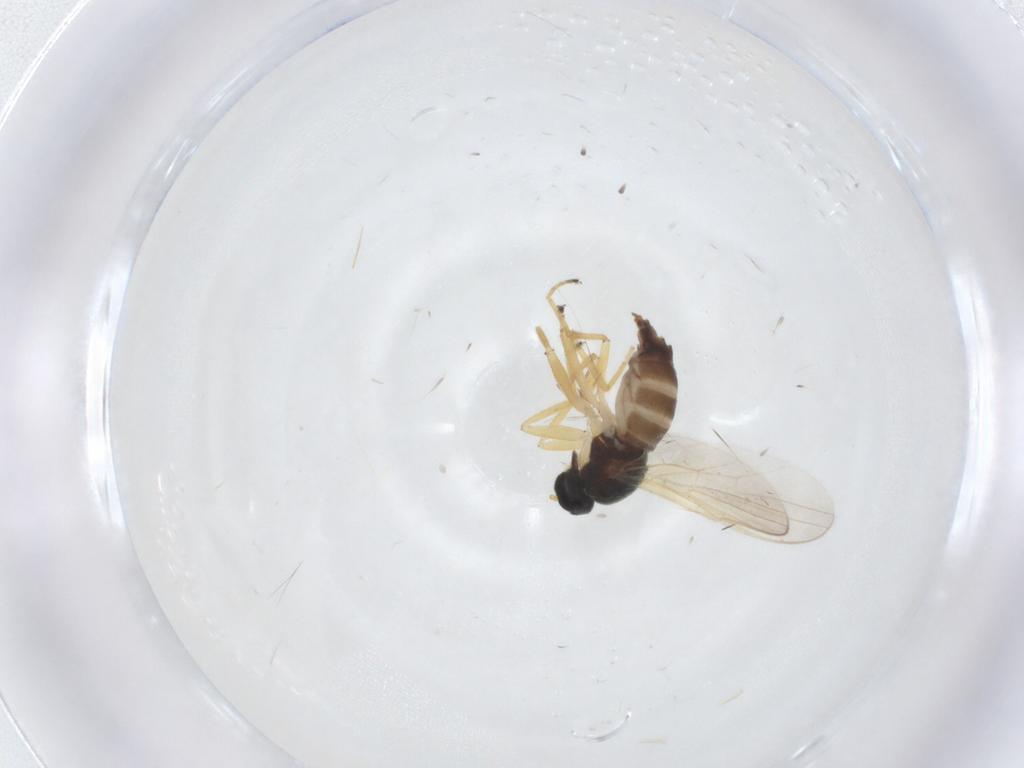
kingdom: Animalia
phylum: Arthropoda
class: Insecta
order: Diptera
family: Hybotidae
